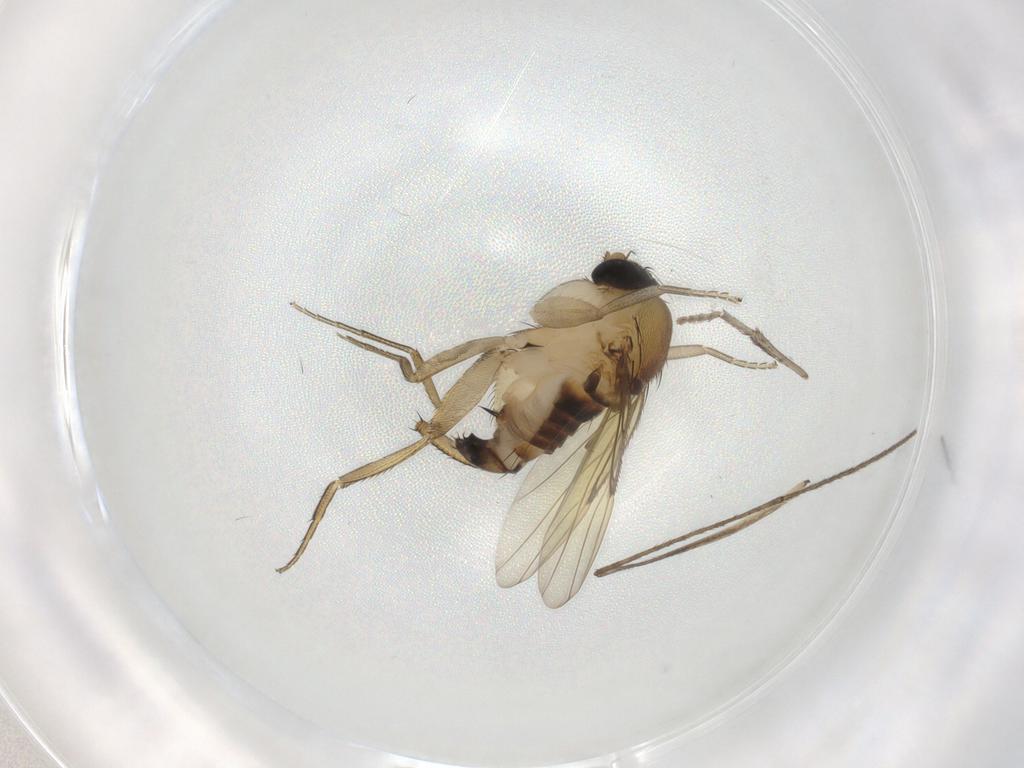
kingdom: Animalia
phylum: Arthropoda
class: Insecta
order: Diptera
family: Psychodidae
